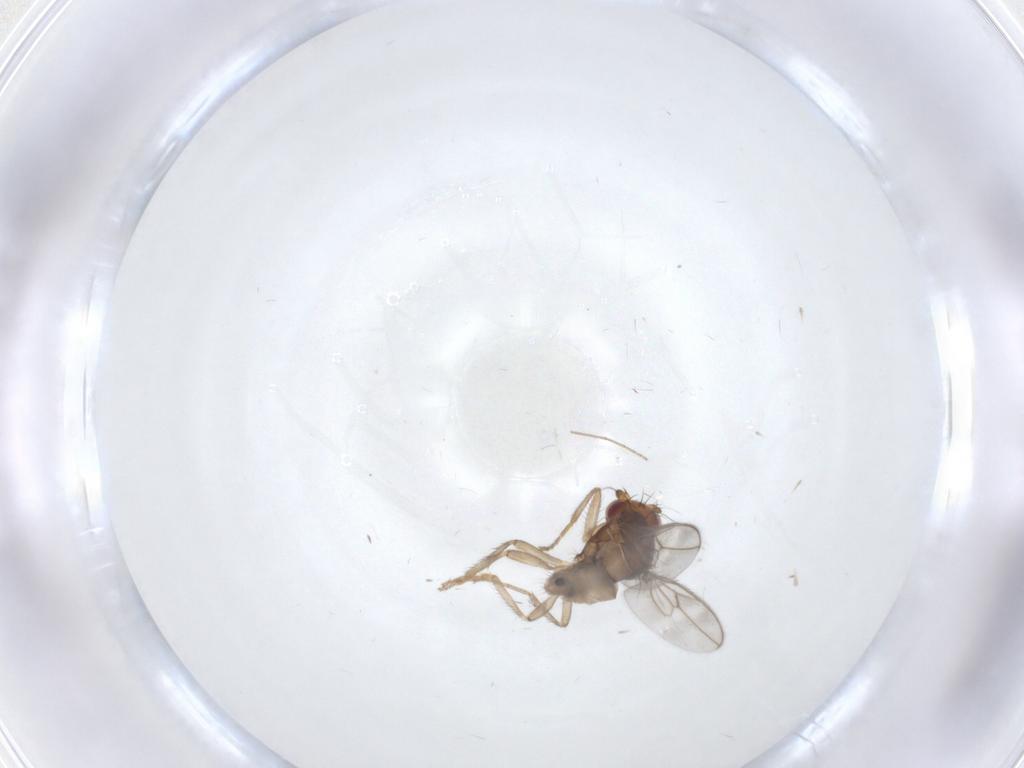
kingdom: Animalia
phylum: Arthropoda
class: Insecta
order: Diptera
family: Sphaeroceridae
